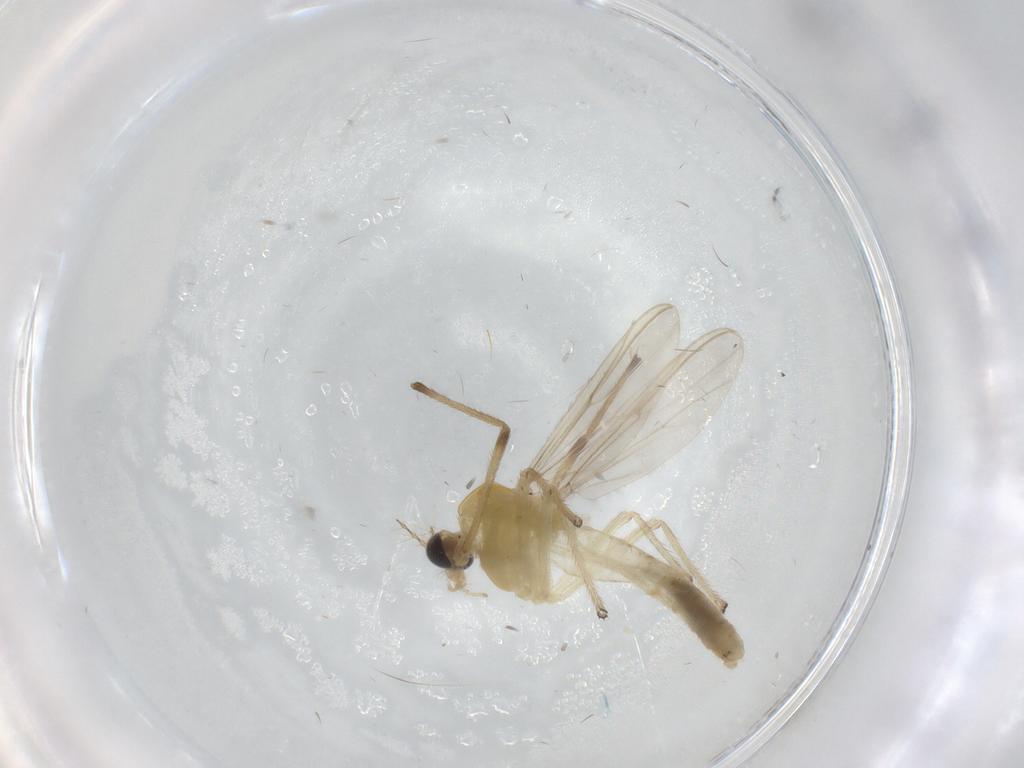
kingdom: Animalia
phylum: Arthropoda
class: Insecta
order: Diptera
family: Chironomidae
